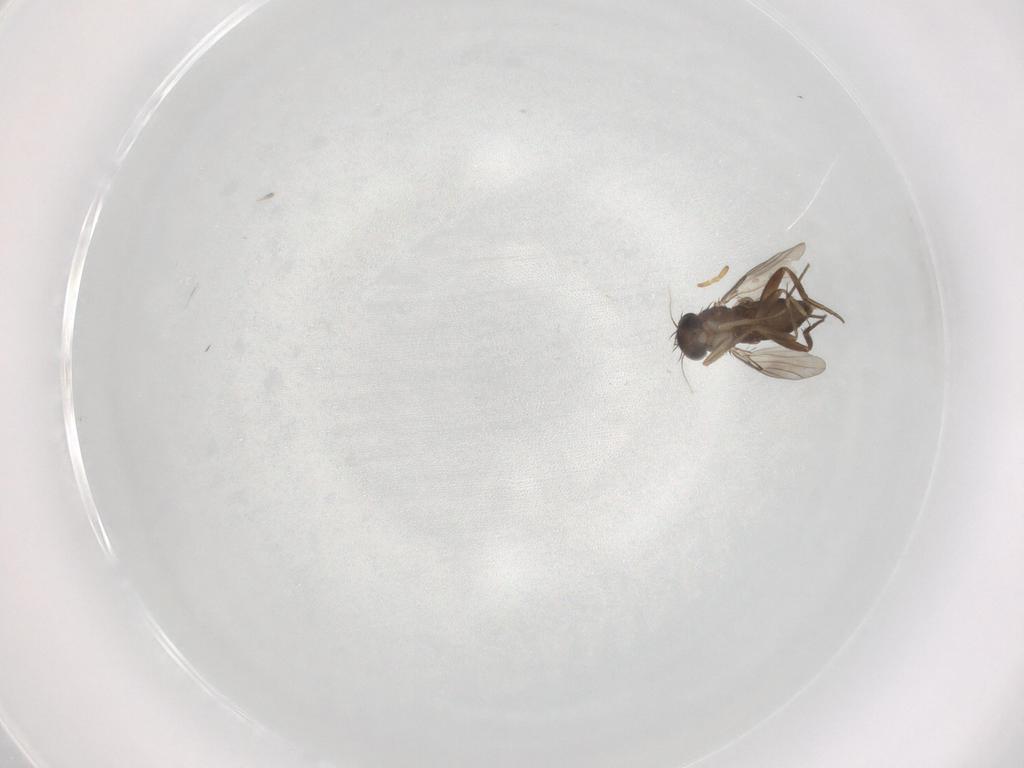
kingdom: Animalia
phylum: Arthropoda
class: Insecta
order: Diptera
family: Phoridae
